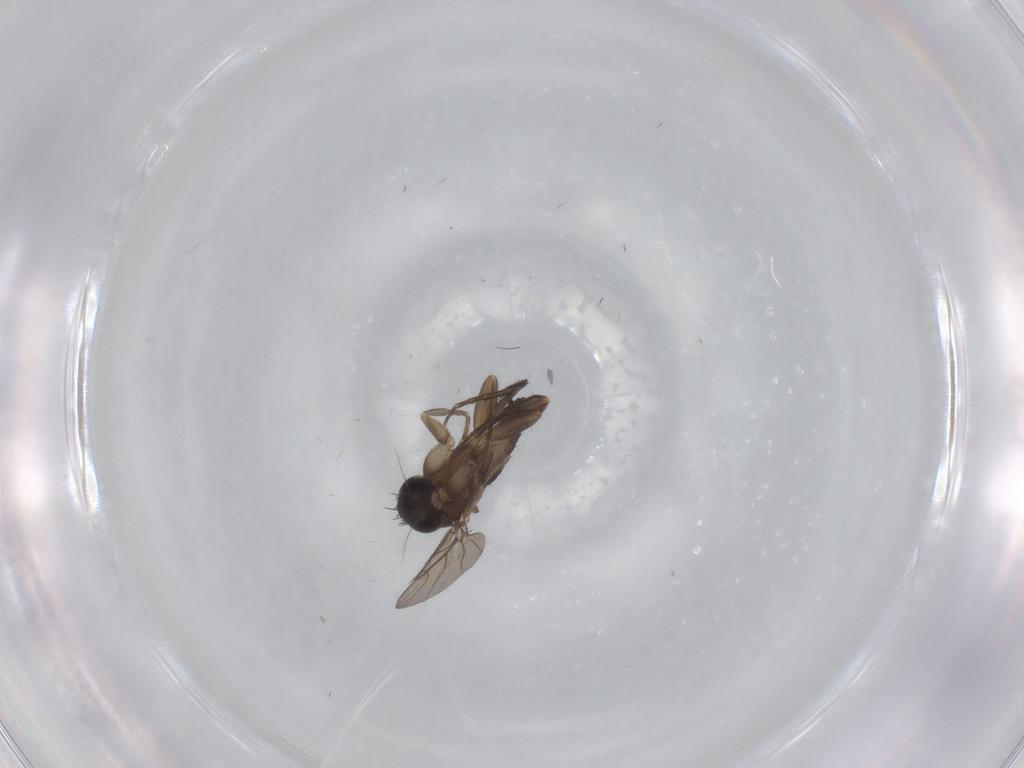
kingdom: Animalia
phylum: Arthropoda
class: Insecta
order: Diptera
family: Phoridae
